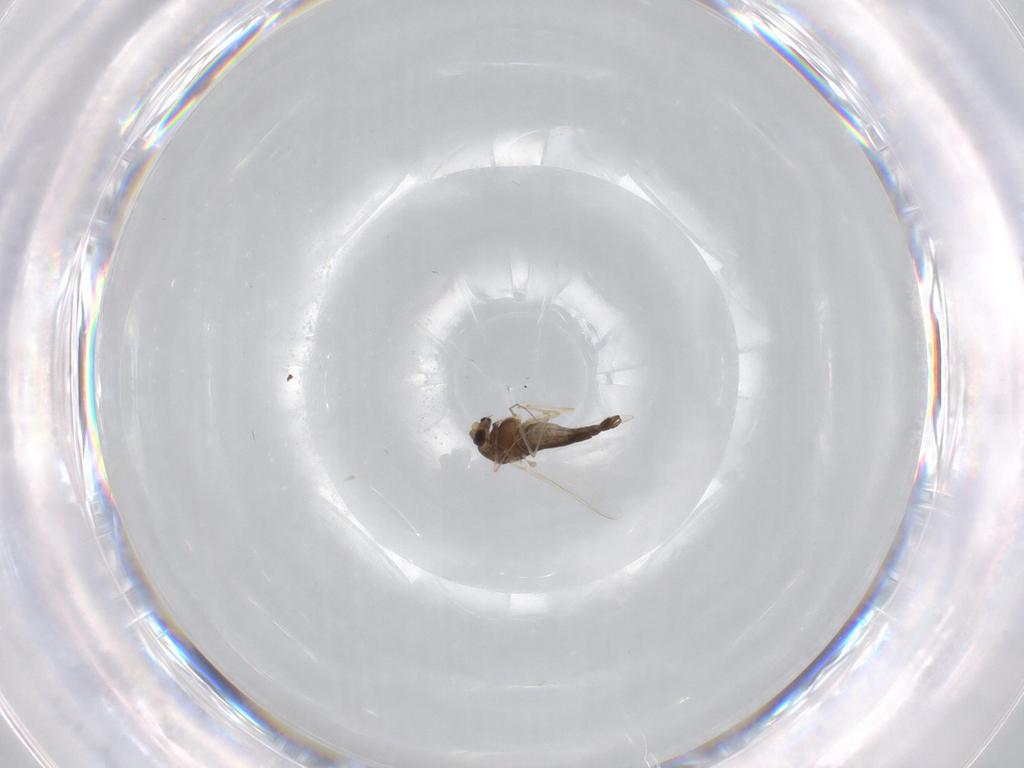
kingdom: Animalia
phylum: Arthropoda
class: Insecta
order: Diptera
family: Chironomidae
